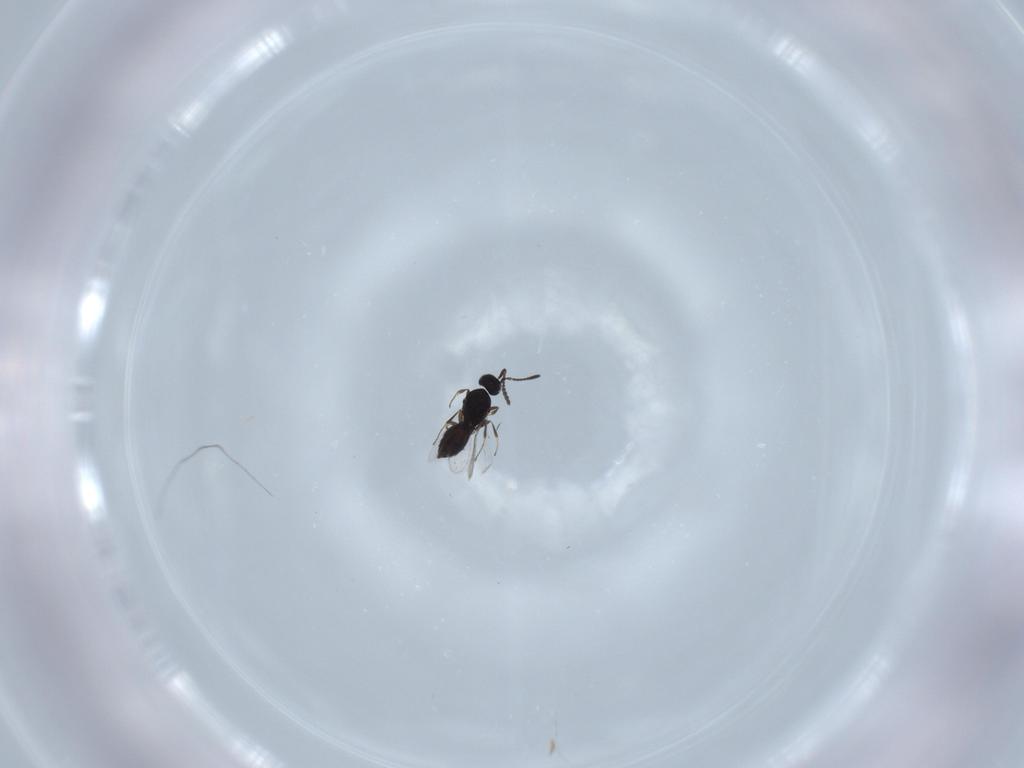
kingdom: Animalia
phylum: Arthropoda
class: Insecta
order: Hymenoptera
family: Scelionidae
